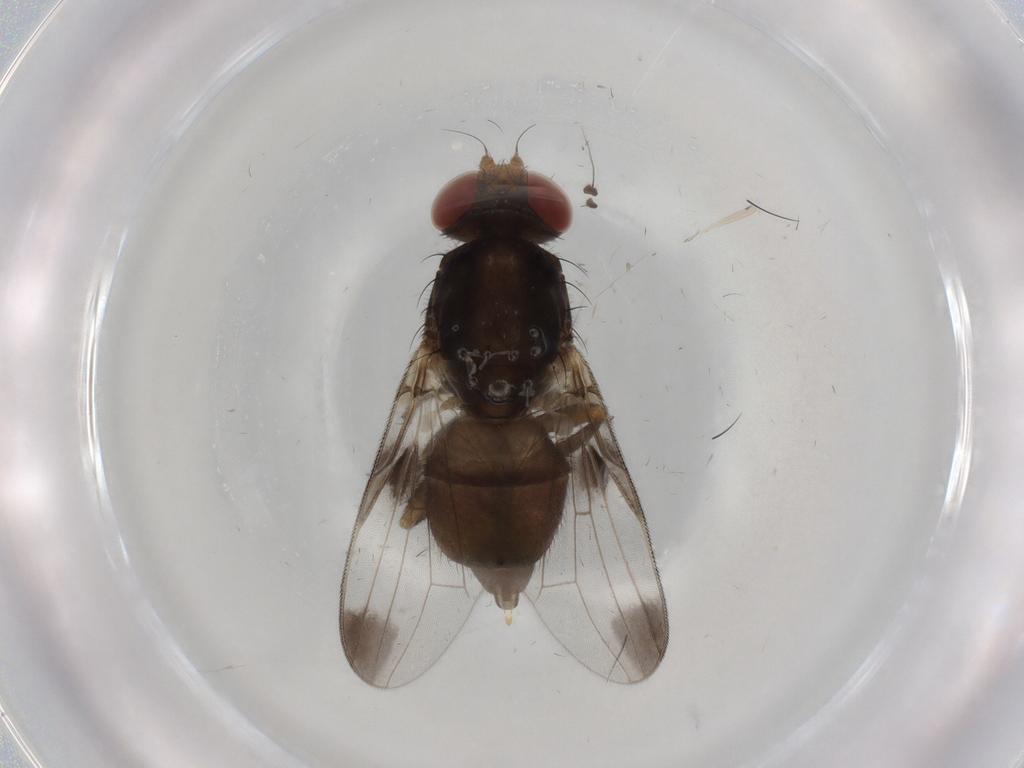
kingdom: Animalia
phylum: Arthropoda
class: Insecta
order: Diptera
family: Ulidiidae
